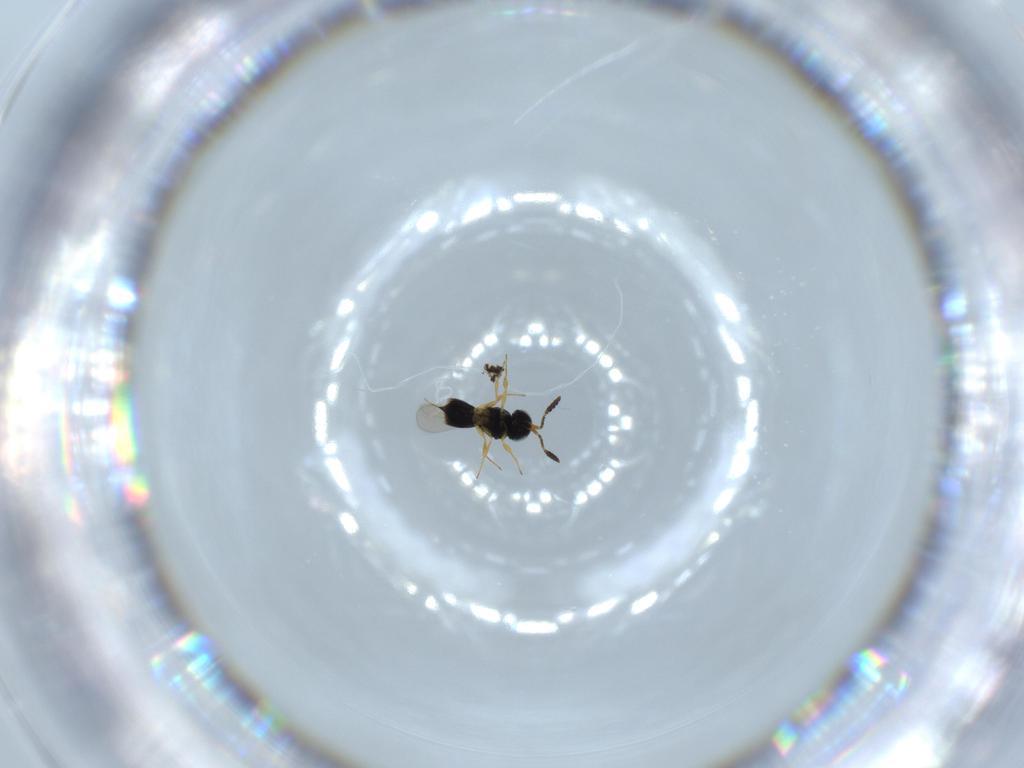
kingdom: Animalia
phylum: Arthropoda
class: Insecta
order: Hymenoptera
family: Scelionidae
